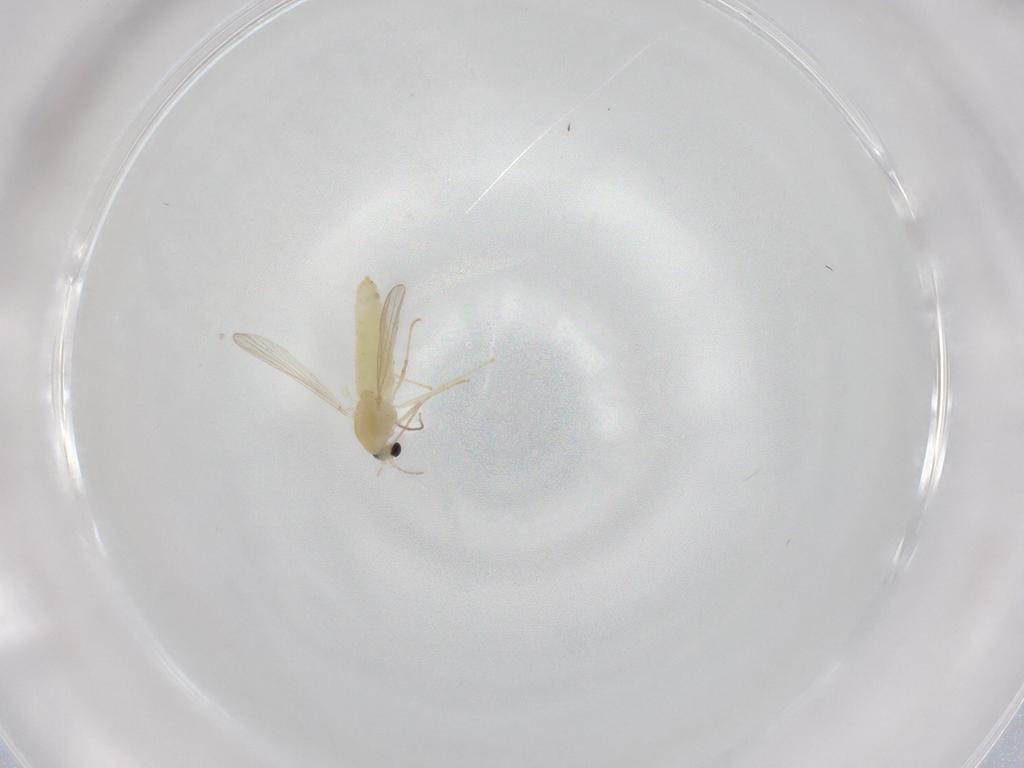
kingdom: Animalia
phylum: Arthropoda
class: Insecta
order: Diptera
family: Chironomidae
